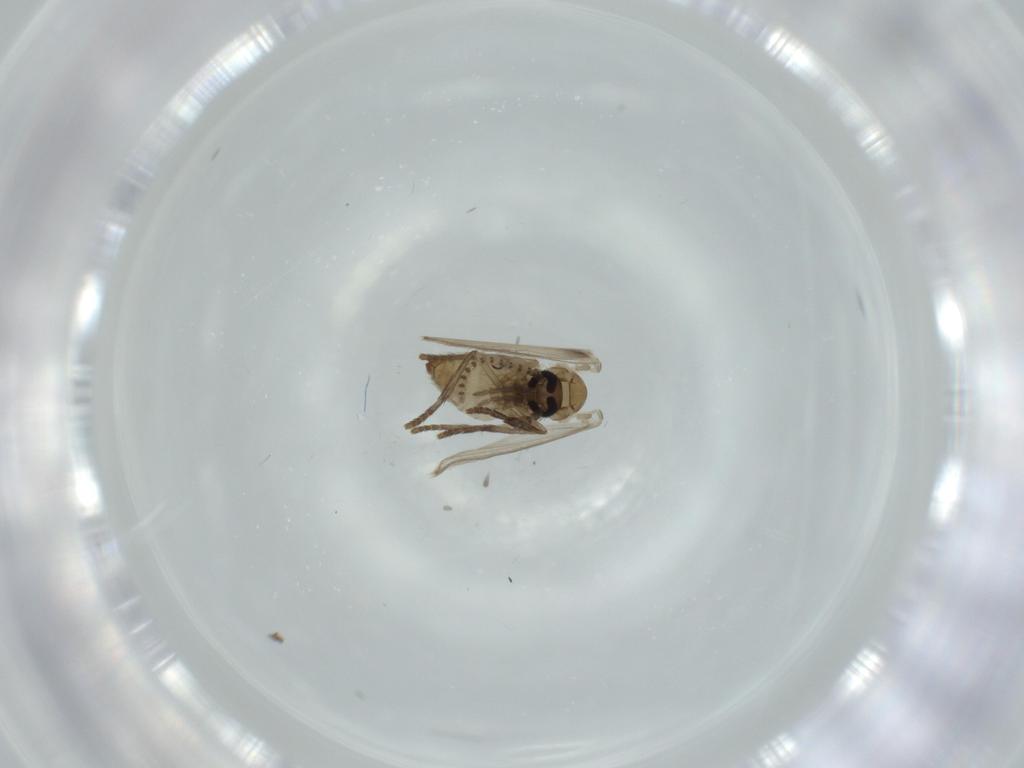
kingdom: Animalia
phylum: Arthropoda
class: Insecta
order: Diptera
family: Psychodidae
